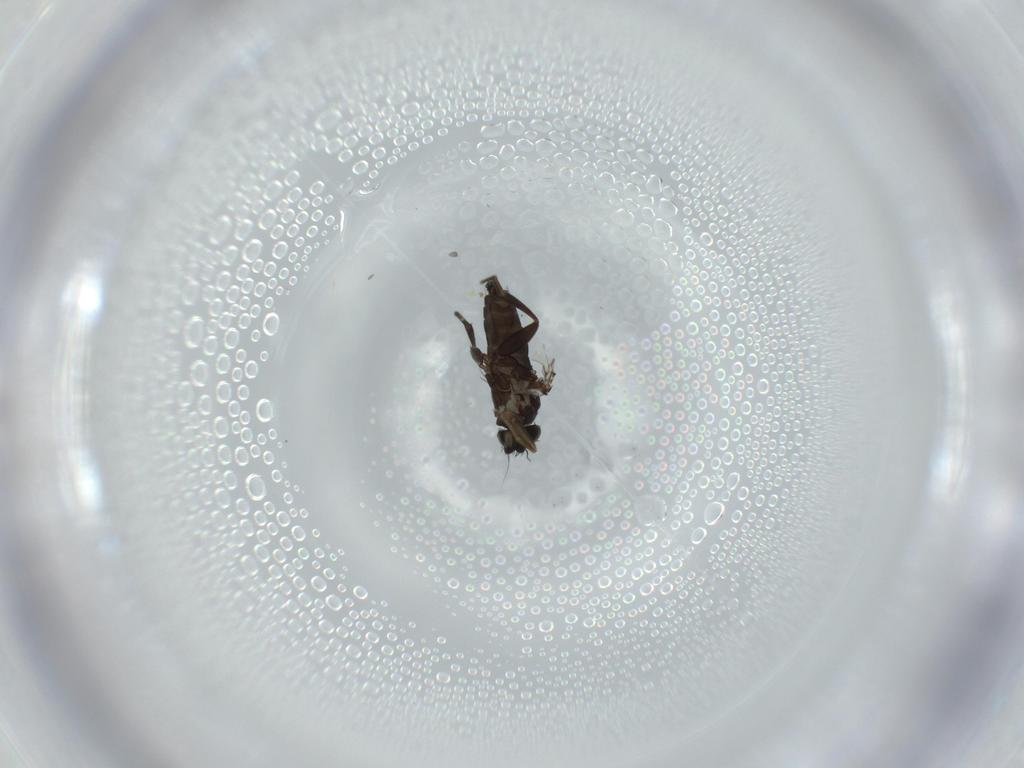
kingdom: Animalia
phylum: Arthropoda
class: Insecta
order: Diptera
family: Phoridae
